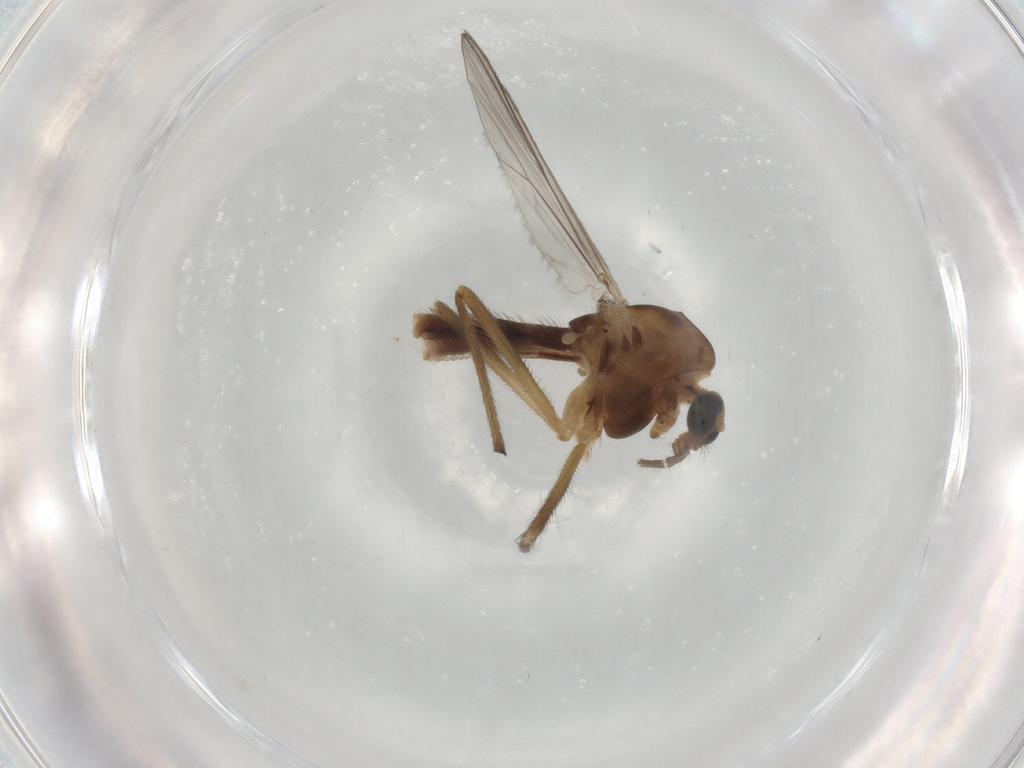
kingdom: Animalia
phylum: Arthropoda
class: Insecta
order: Diptera
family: Chironomidae
